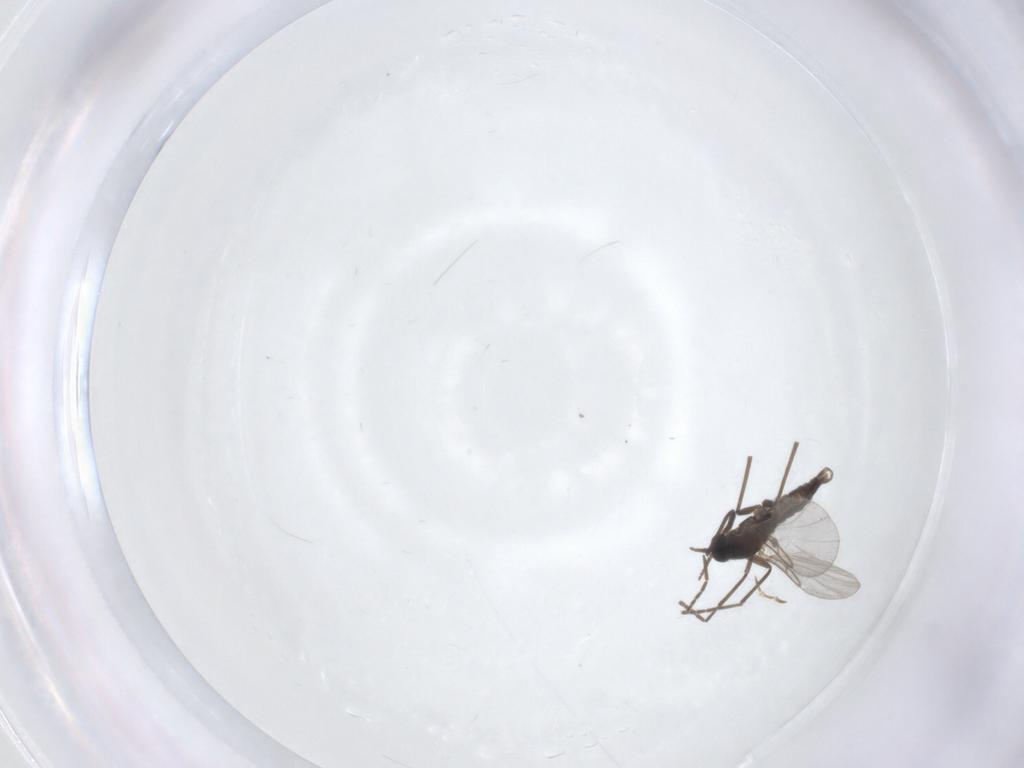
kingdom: Animalia
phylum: Arthropoda
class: Insecta
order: Diptera
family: Cecidomyiidae
